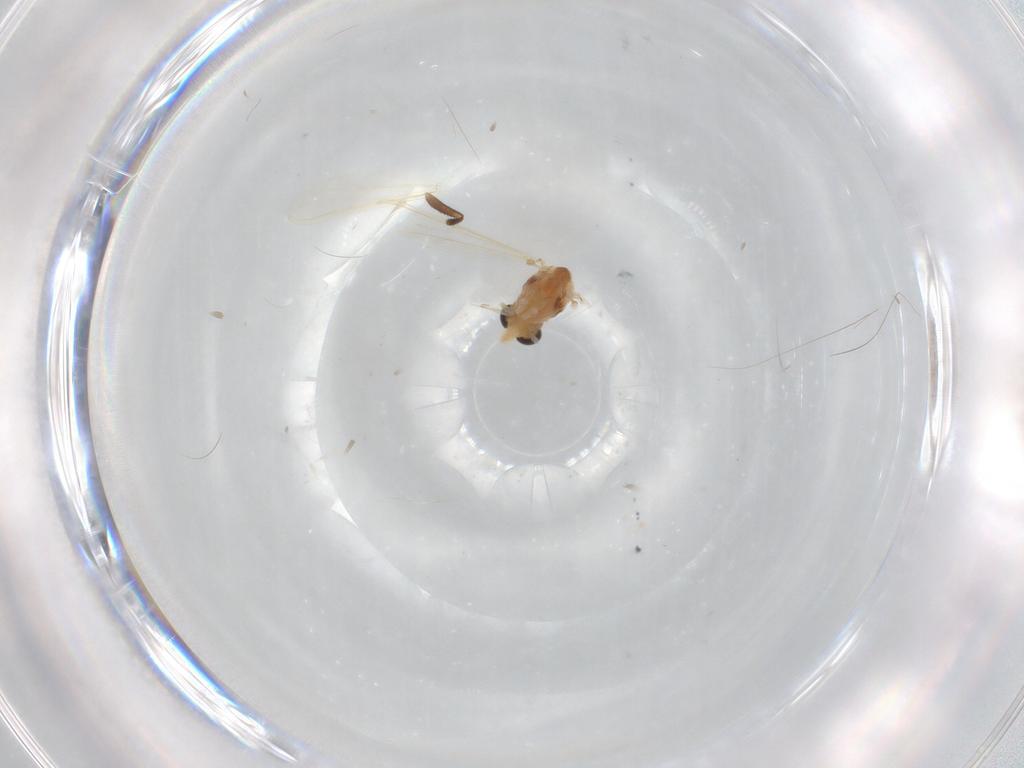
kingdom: Animalia
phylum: Arthropoda
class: Insecta
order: Diptera
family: Chironomidae
